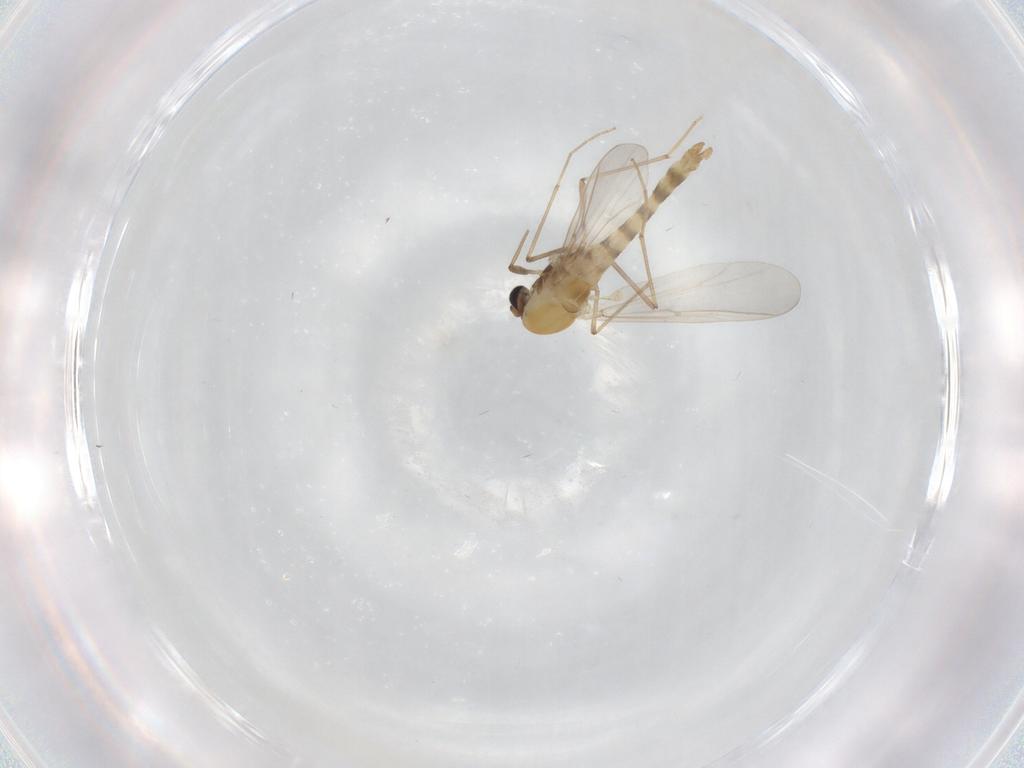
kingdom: Animalia
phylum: Arthropoda
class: Insecta
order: Diptera
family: Chironomidae
